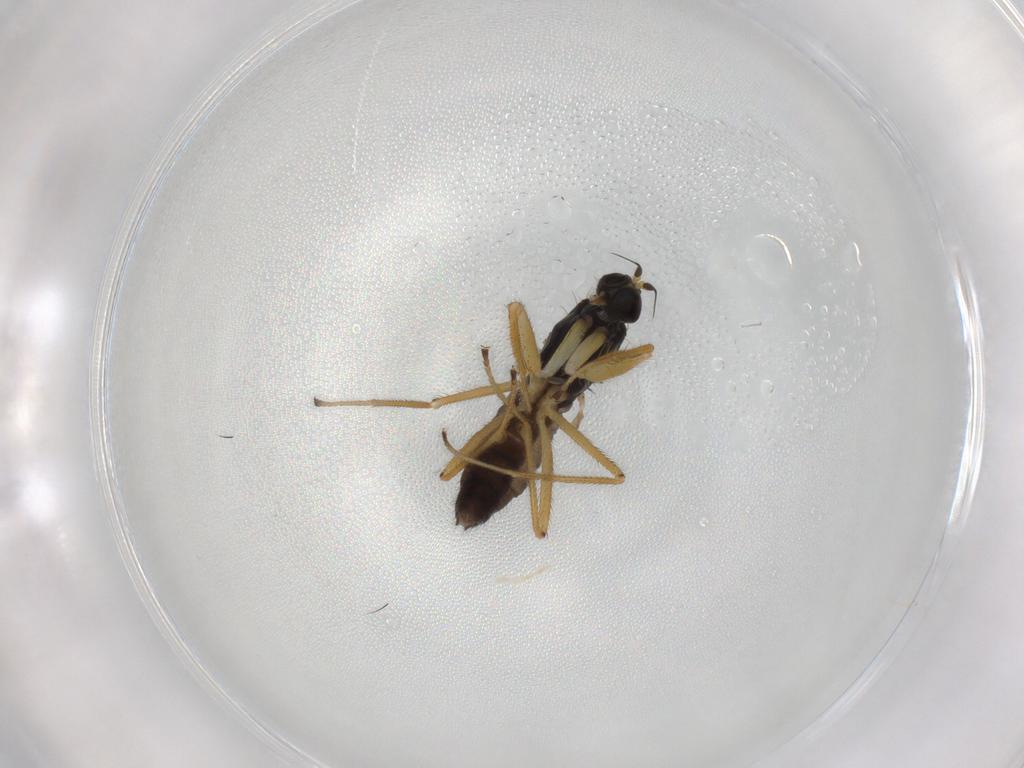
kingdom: Animalia
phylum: Arthropoda
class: Insecta
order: Diptera
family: Empididae
